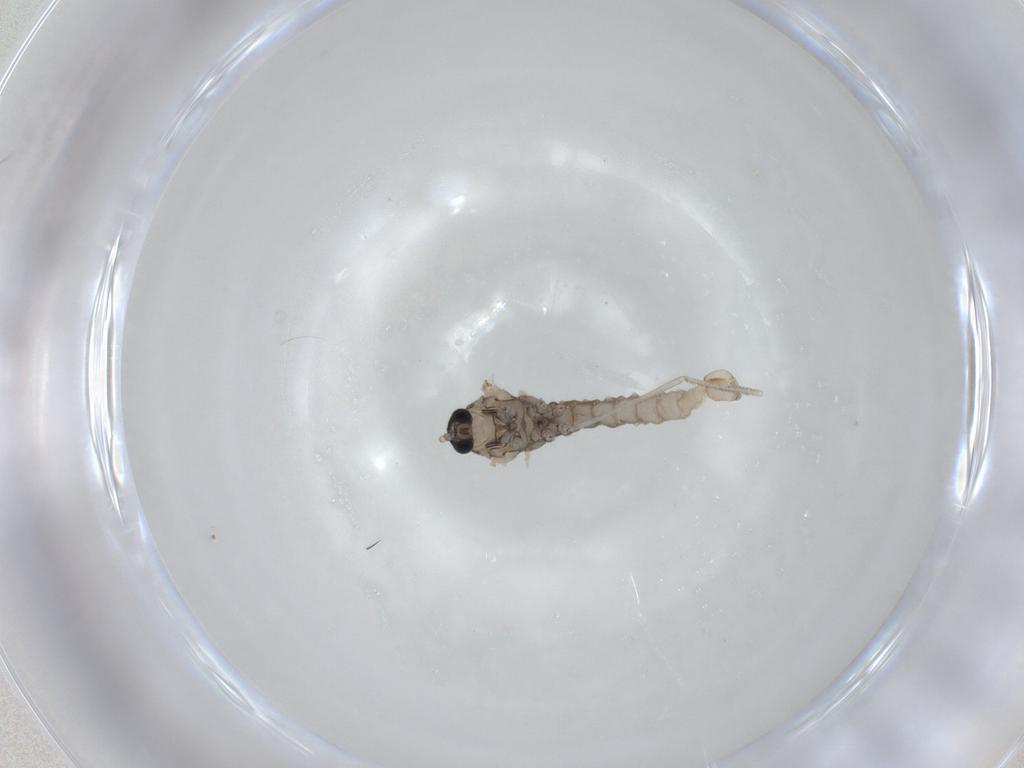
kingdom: Animalia
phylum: Arthropoda
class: Insecta
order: Diptera
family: Cecidomyiidae
